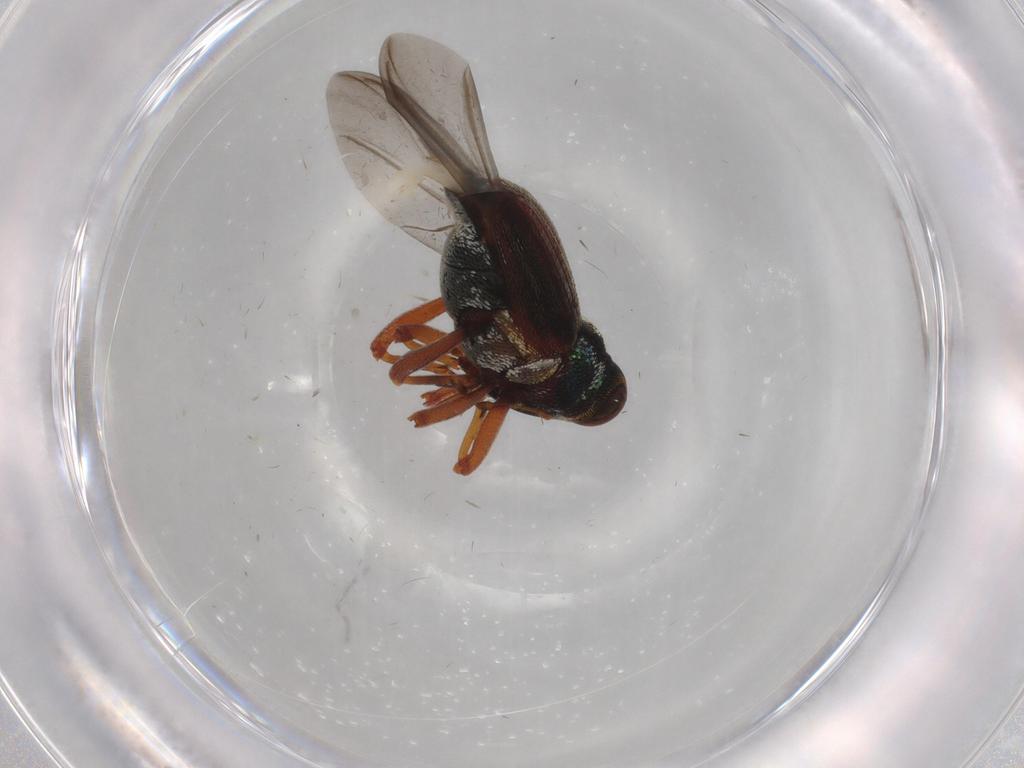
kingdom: Animalia
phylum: Arthropoda
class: Insecta
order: Coleoptera
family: Curculionidae
